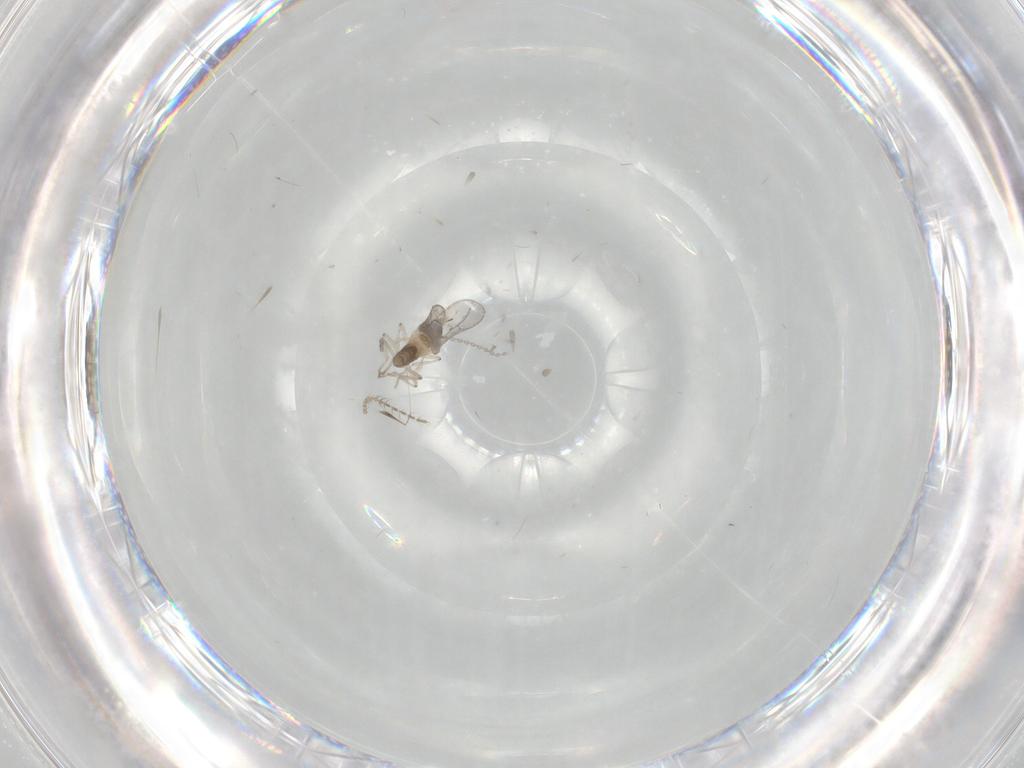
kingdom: Animalia
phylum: Arthropoda
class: Insecta
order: Diptera
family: Ceratopogonidae
